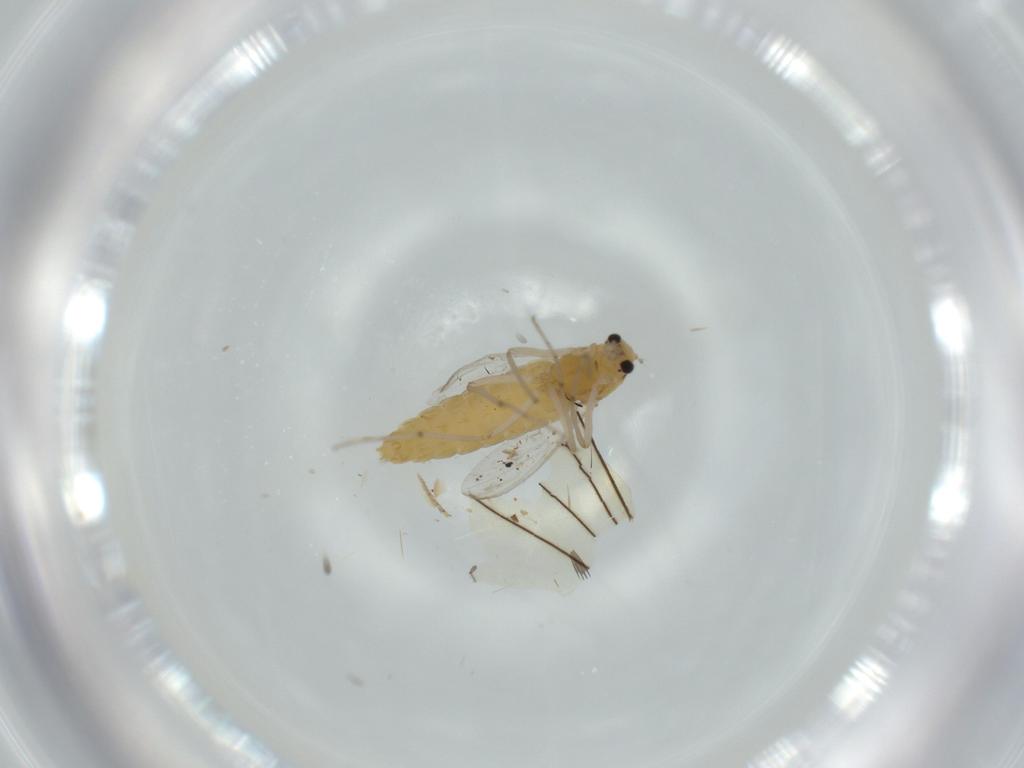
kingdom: Animalia
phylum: Arthropoda
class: Insecta
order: Diptera
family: Chironomidae
